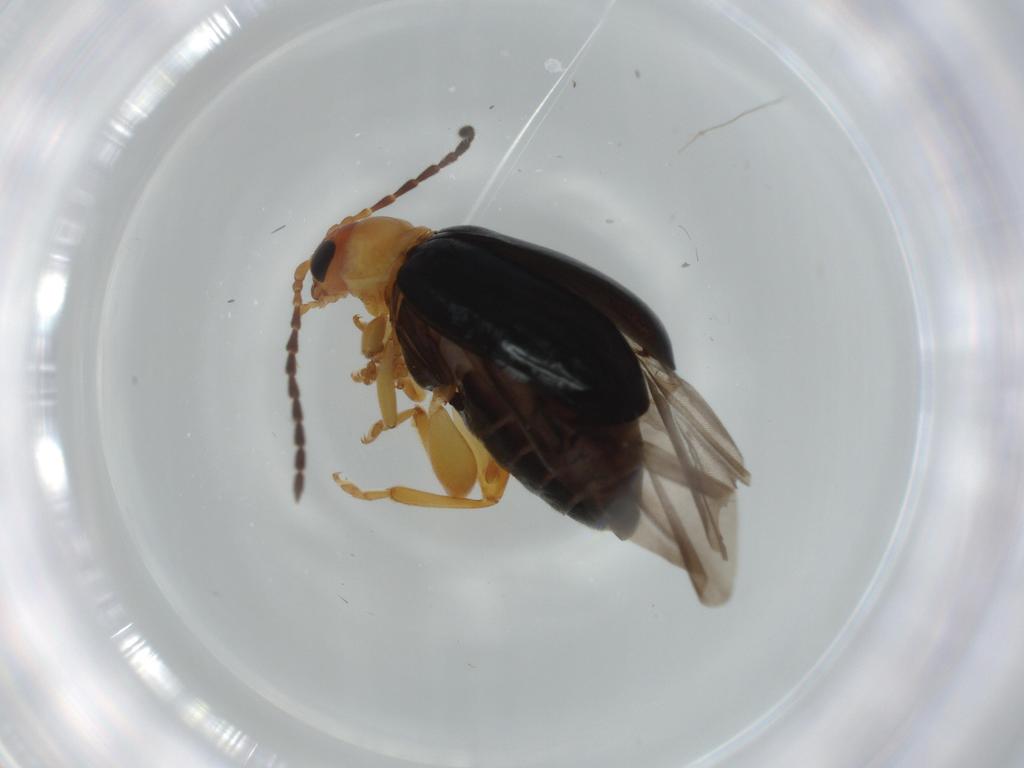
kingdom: Animalia
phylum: Arthropoda
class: Insecta
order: Coleoptera
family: Chrysomelidae
